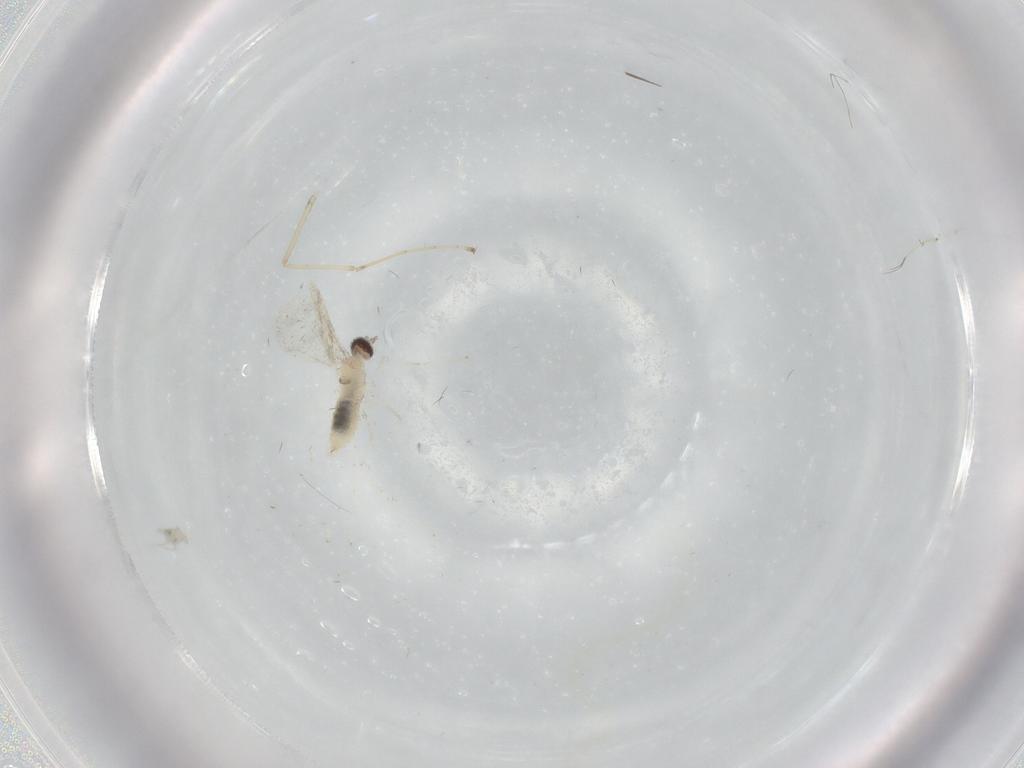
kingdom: Animalia
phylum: Arthropoda
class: Insecta
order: Diptera
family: Cecidomyiidae
